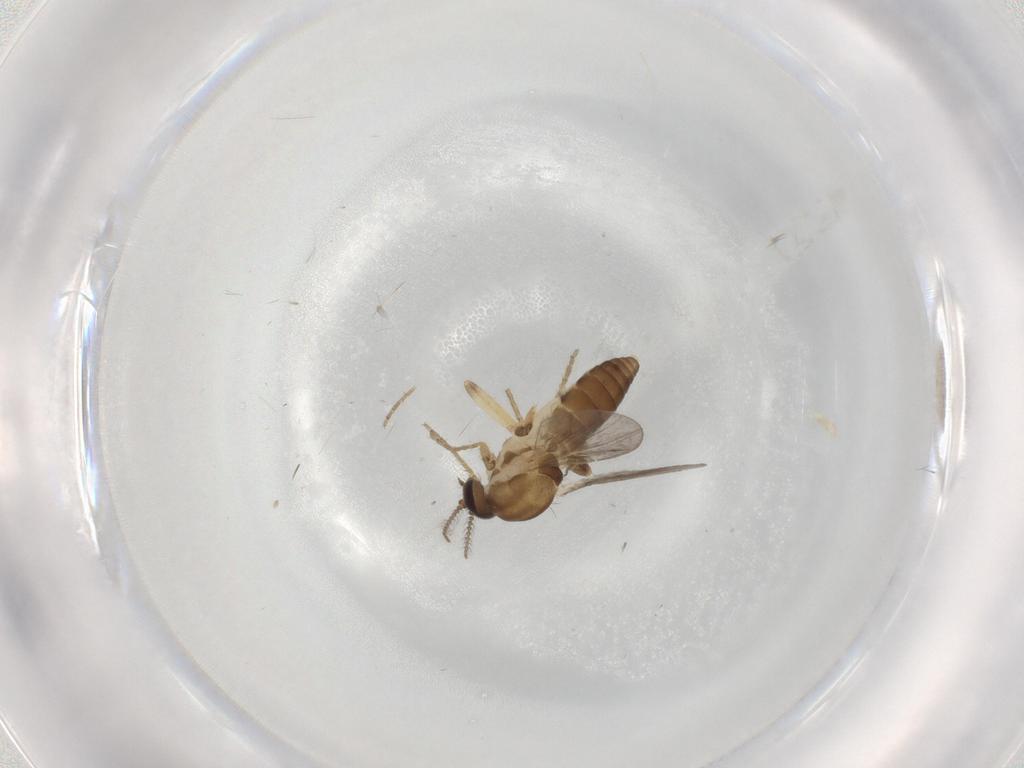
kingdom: Animalia
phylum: Arthropoda
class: Insecta
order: Diptera
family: Ceratopogonidae
